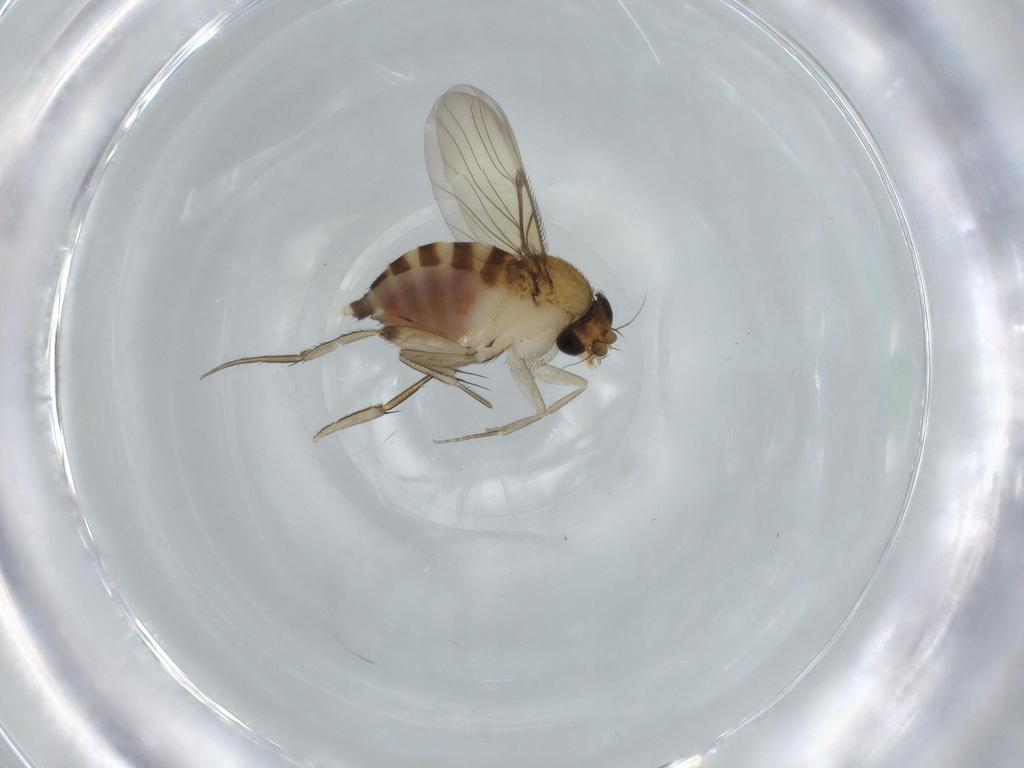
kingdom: Animalia
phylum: Arthropoda
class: Insecta
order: Diptera
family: Phoridae
